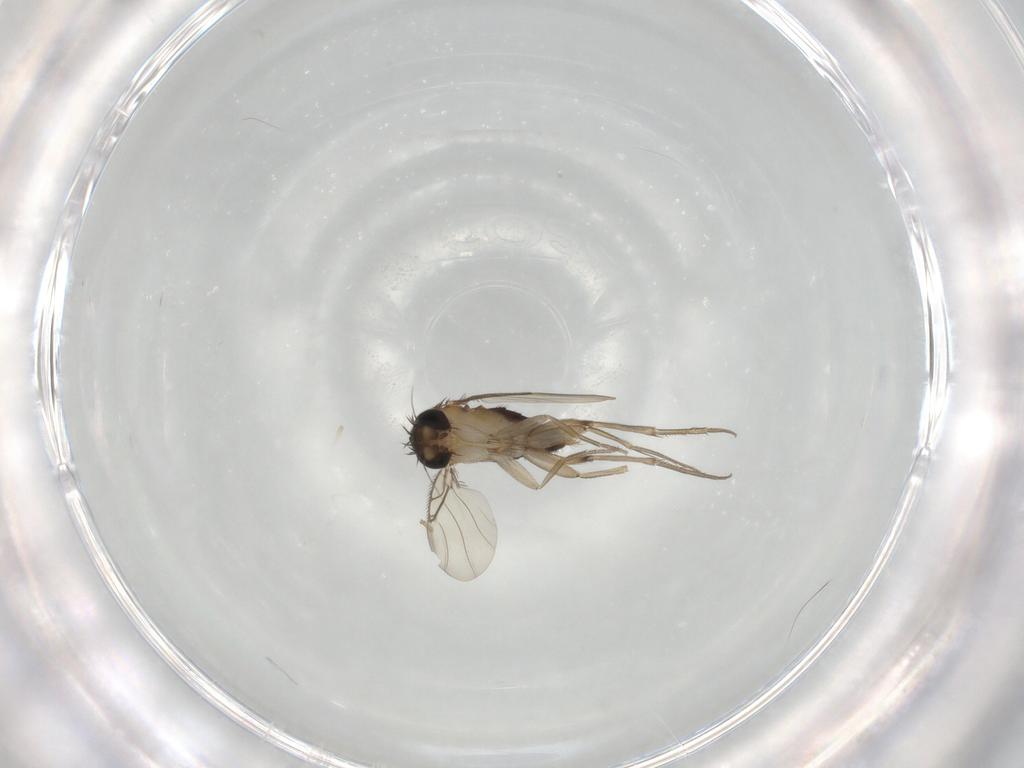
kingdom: Animalia
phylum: Arthropoda
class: Insecta
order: Diptera
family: Phoridae
